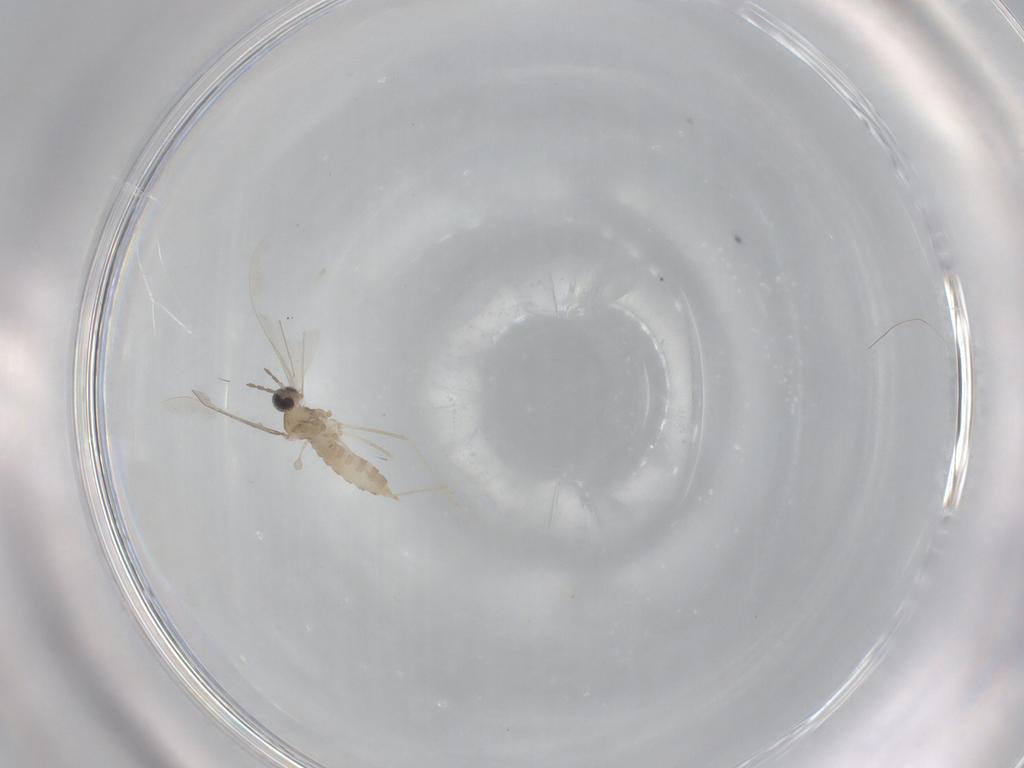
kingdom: Animalia
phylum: Arthropoda
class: Insecta
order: Diptera
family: Cecidomyiidae
